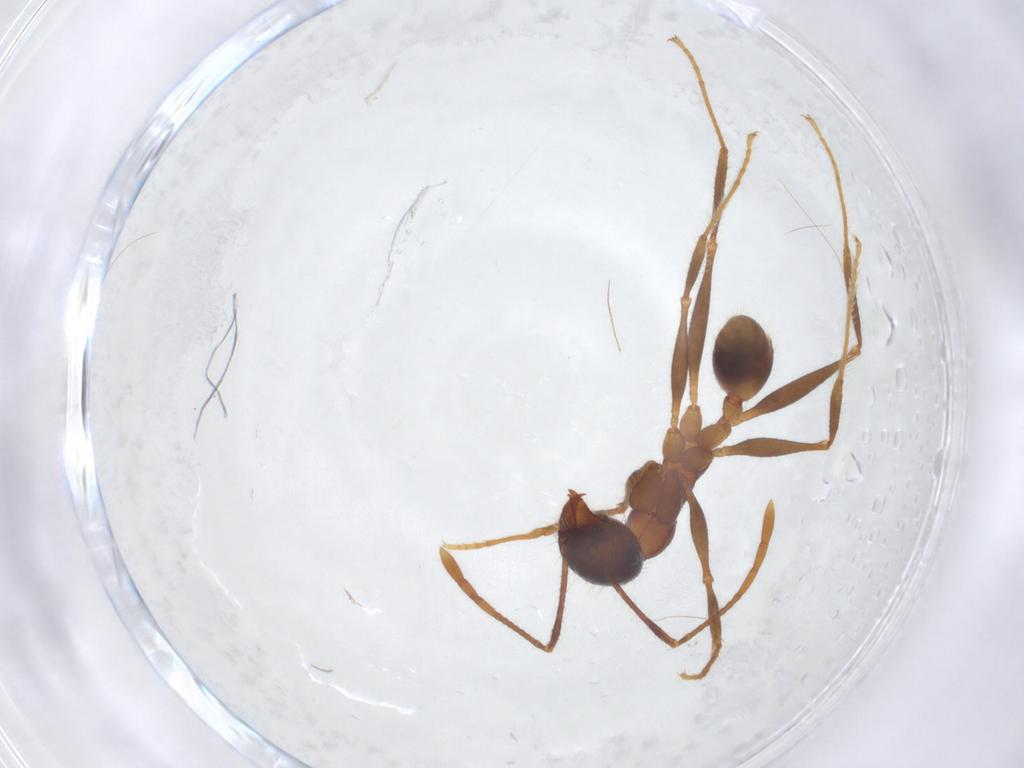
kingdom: Animalia
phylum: Arthropoda
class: Insecta
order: Hymenoptera
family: Formicidae
